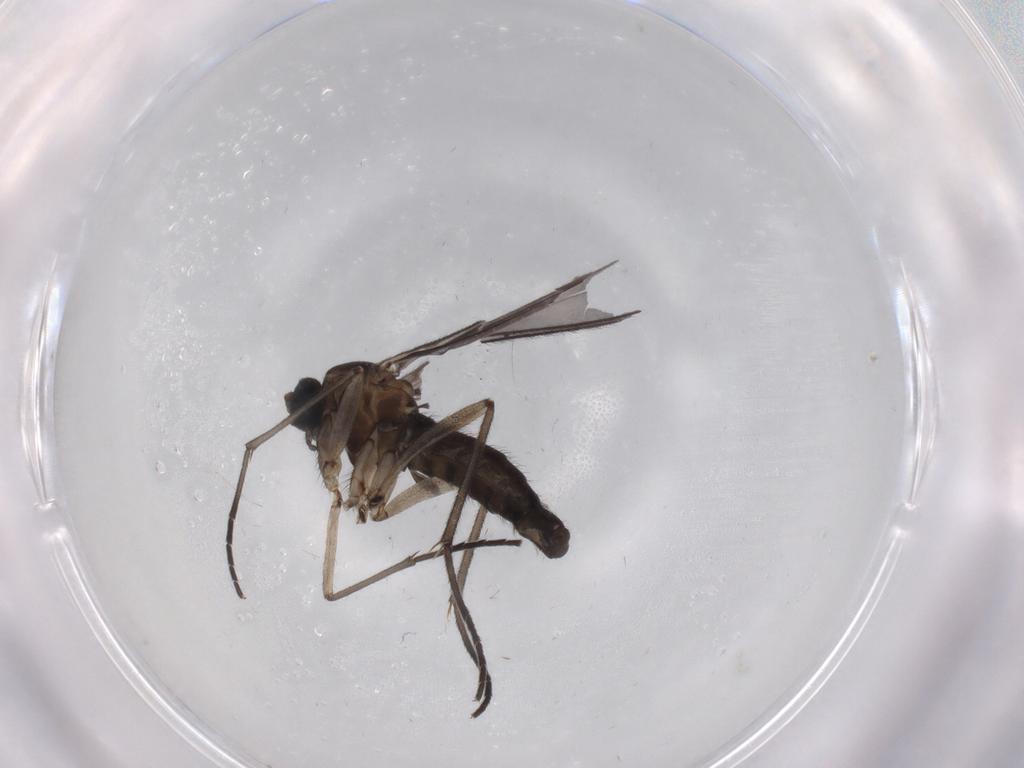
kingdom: Animalia
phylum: Arthropoda
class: Insecta
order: Diptera
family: Sciaridae
